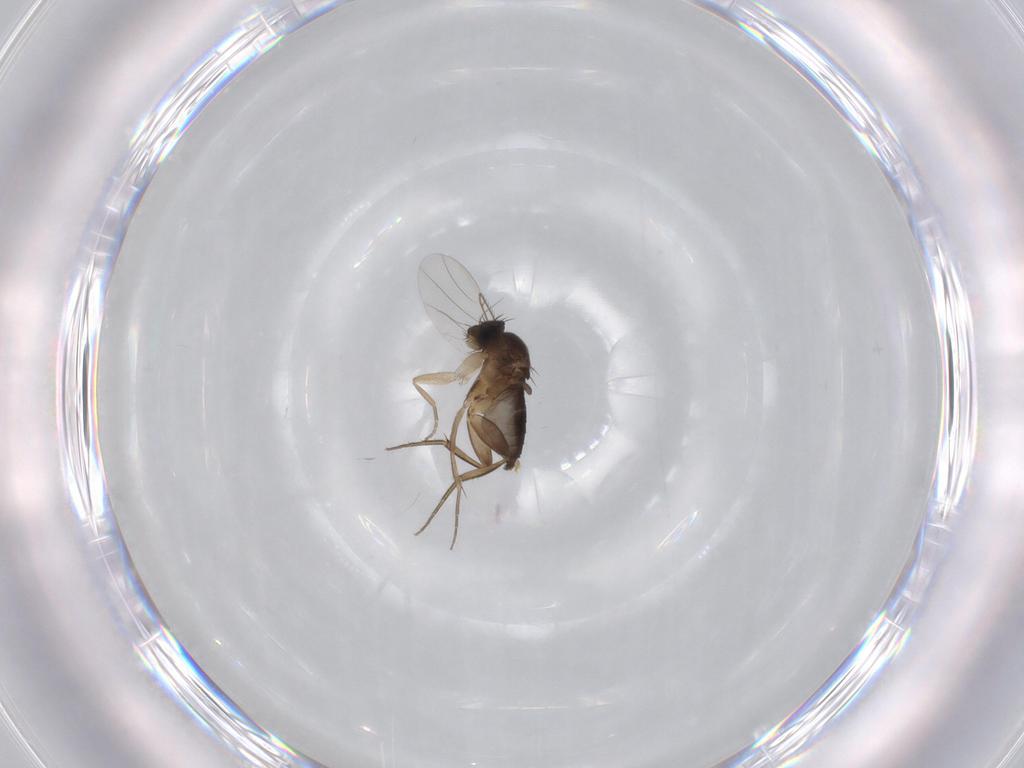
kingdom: Animalia
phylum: Arthropoda
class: Insecta
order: Diptera
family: Phoridae
